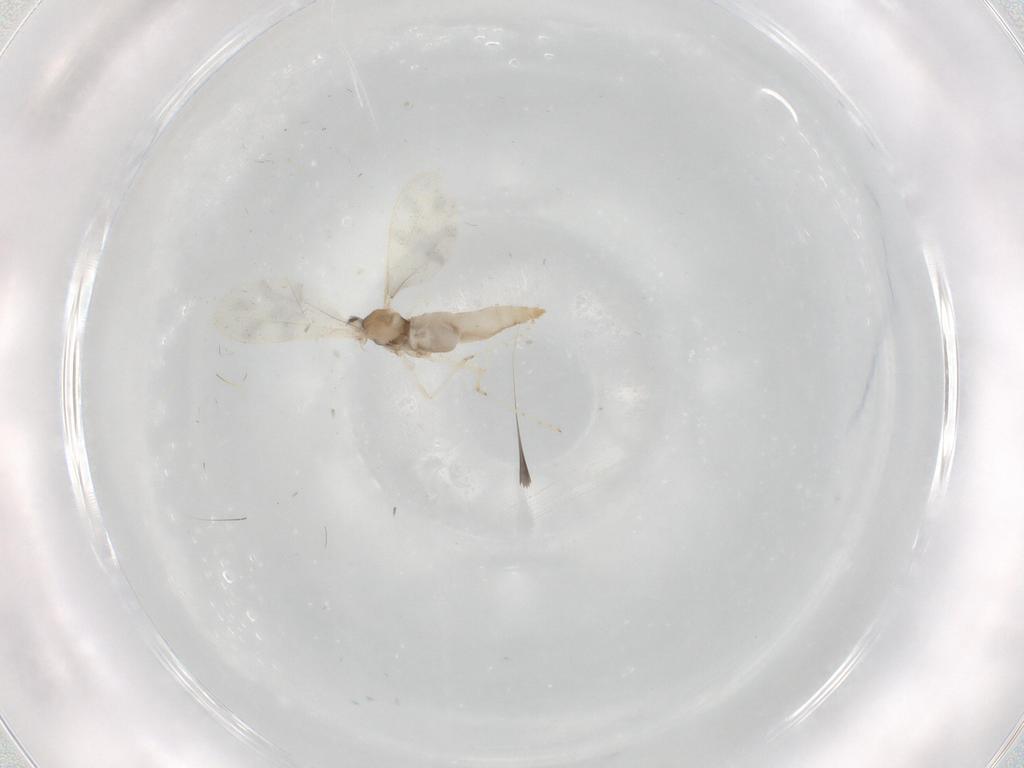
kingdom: Animalia
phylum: Arthropoda
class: Insecta
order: Diptera
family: Cecidomyiidae
